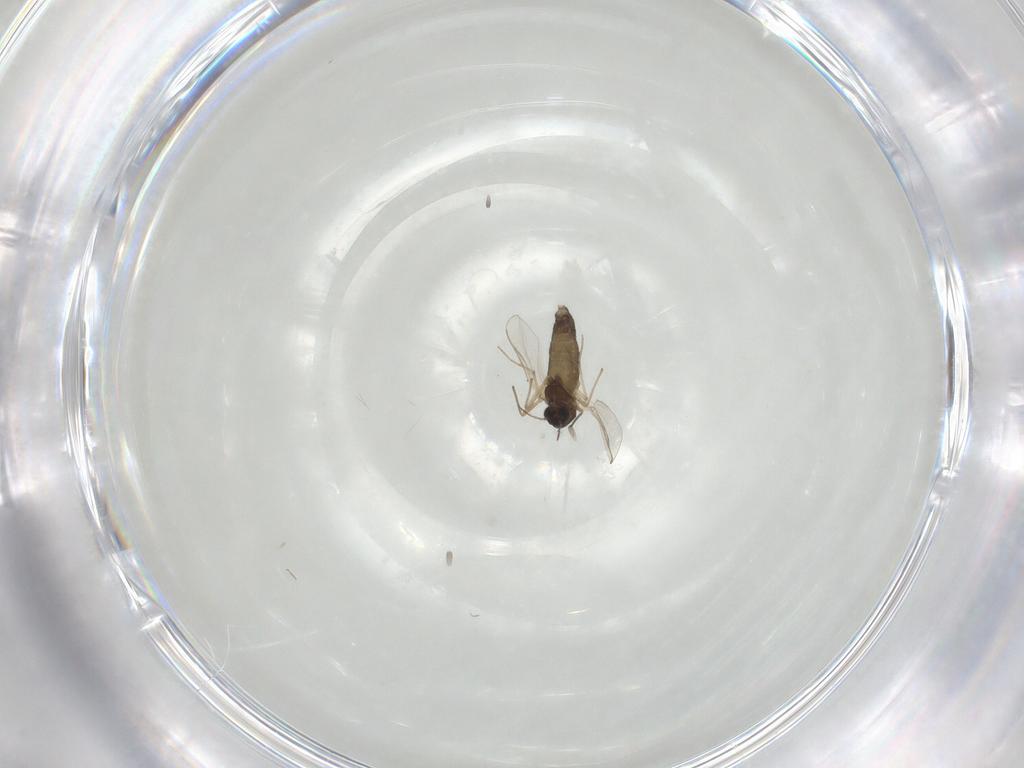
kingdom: Animalia
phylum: Arthropoda
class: Insecta
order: Diptera
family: Chironomidae
